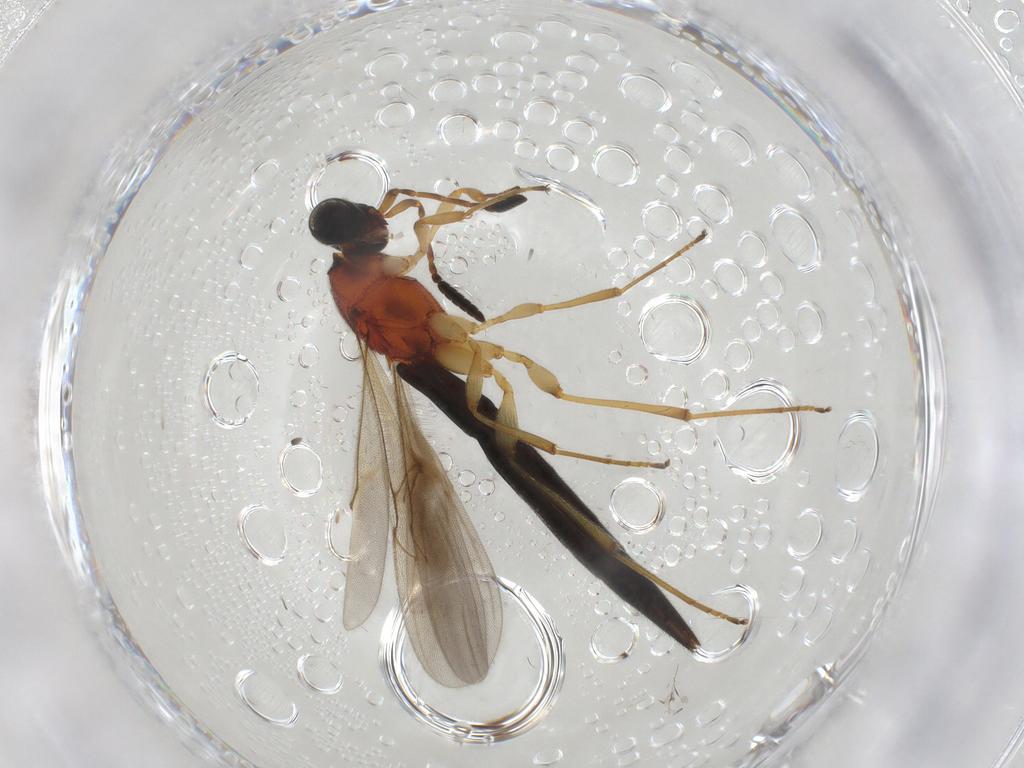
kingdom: Animalia
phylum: Arthropoda
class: Insecta
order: Hymenoptera
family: Scelionidae
